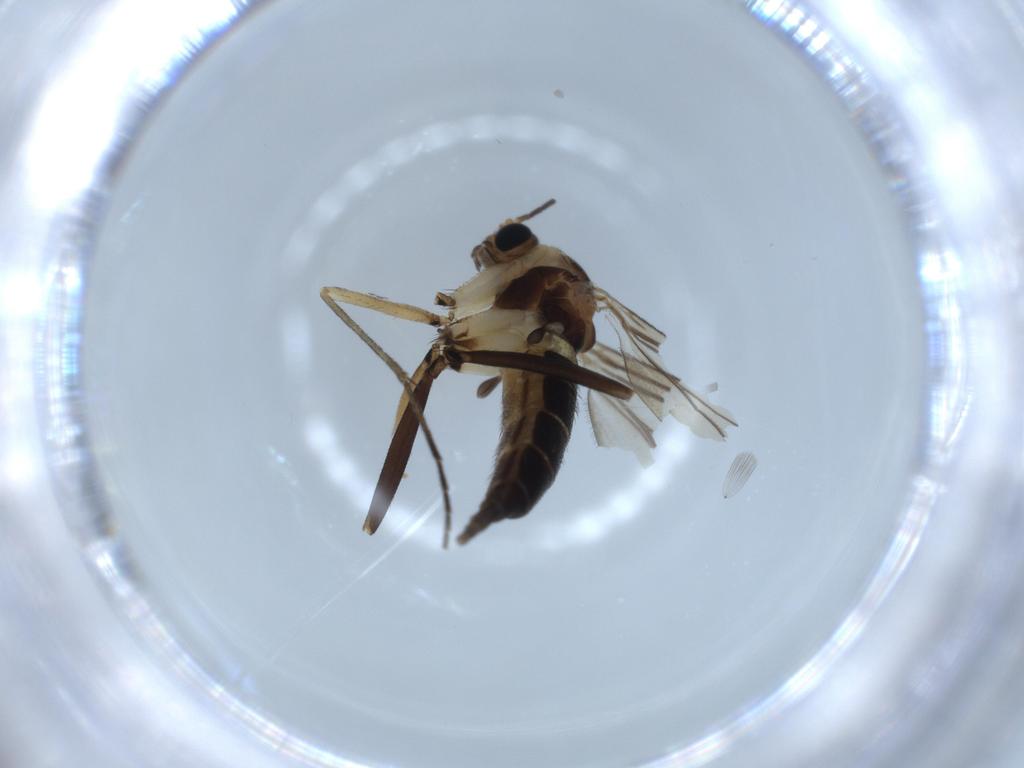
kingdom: Animalia
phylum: Arthropoda
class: Insecta
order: Diptera
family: Sciaridae
